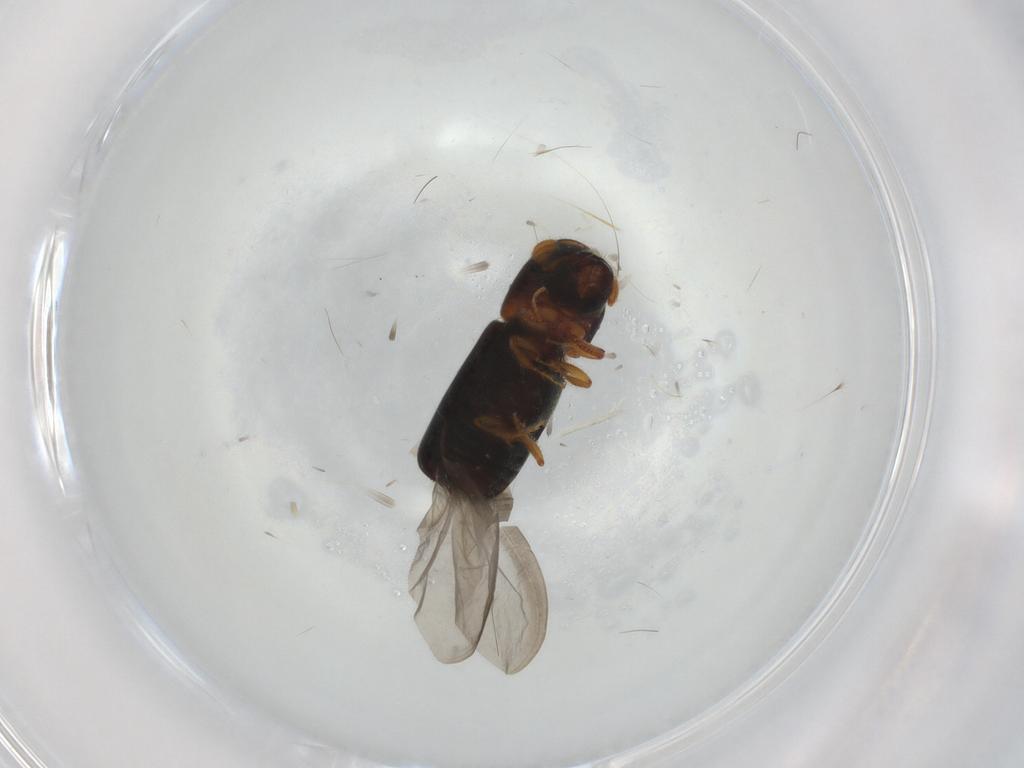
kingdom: Animalia
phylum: Arthropoda
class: Insecta
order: Coleoptera
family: Curculionidae
